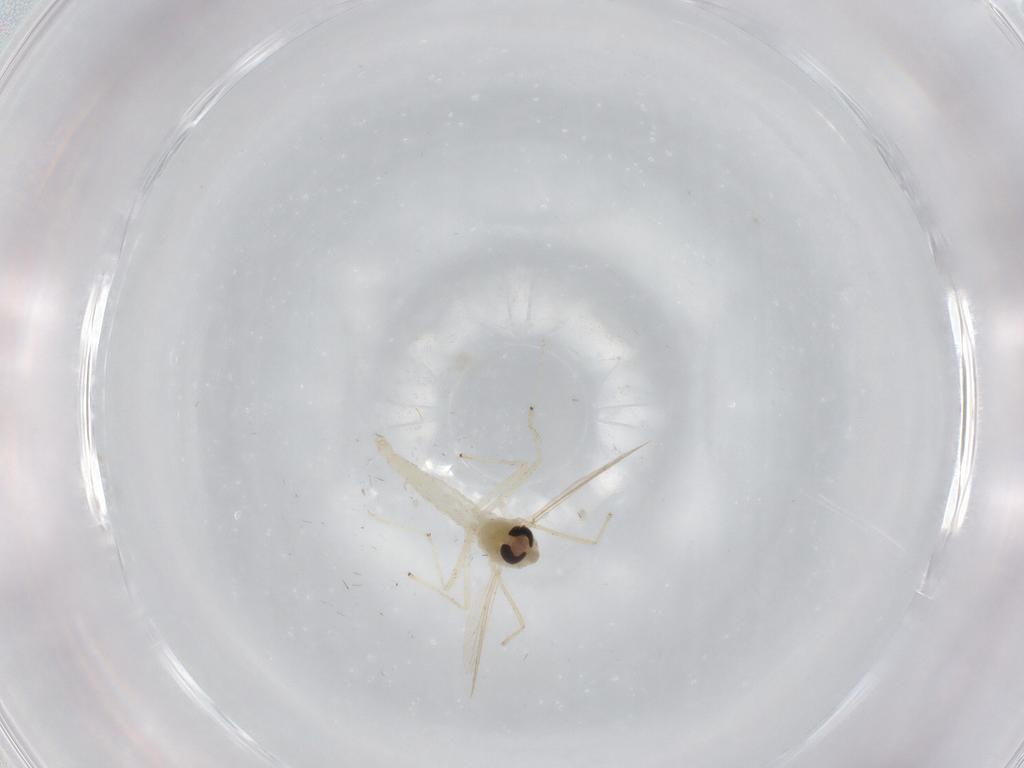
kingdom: Animalia
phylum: Arthropoda
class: Insecta
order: Diptera
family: Chironomidae
